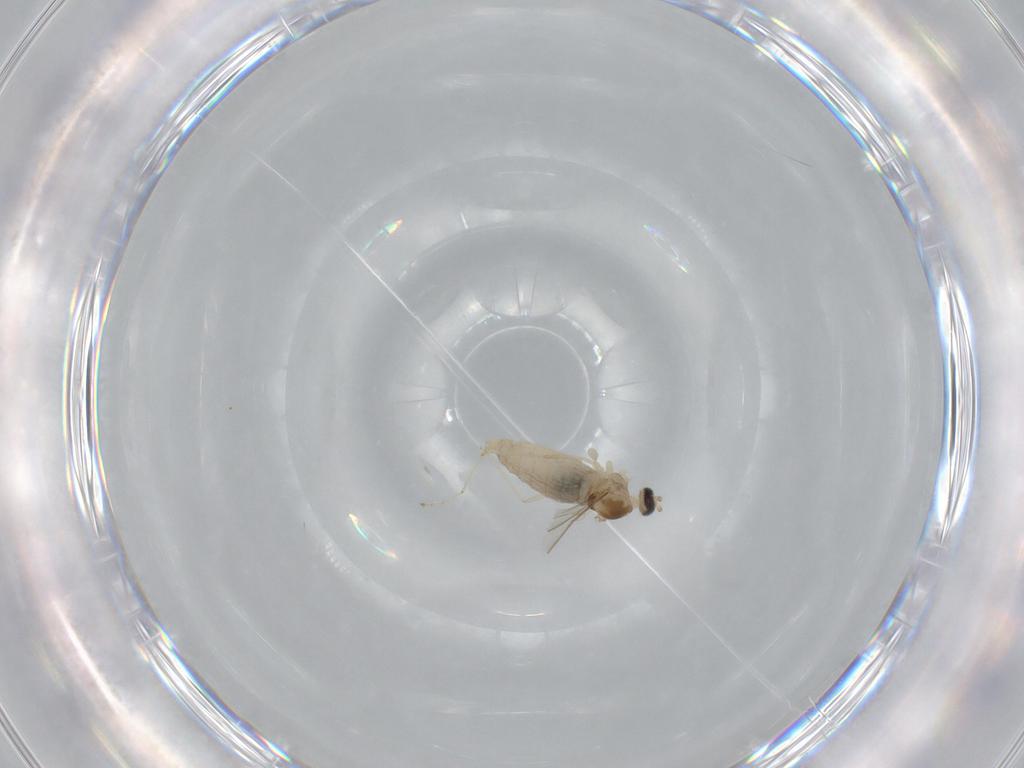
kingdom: Animalia
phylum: Arthropoda
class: Insecta
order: Diptera
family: Cecidomyiidae
